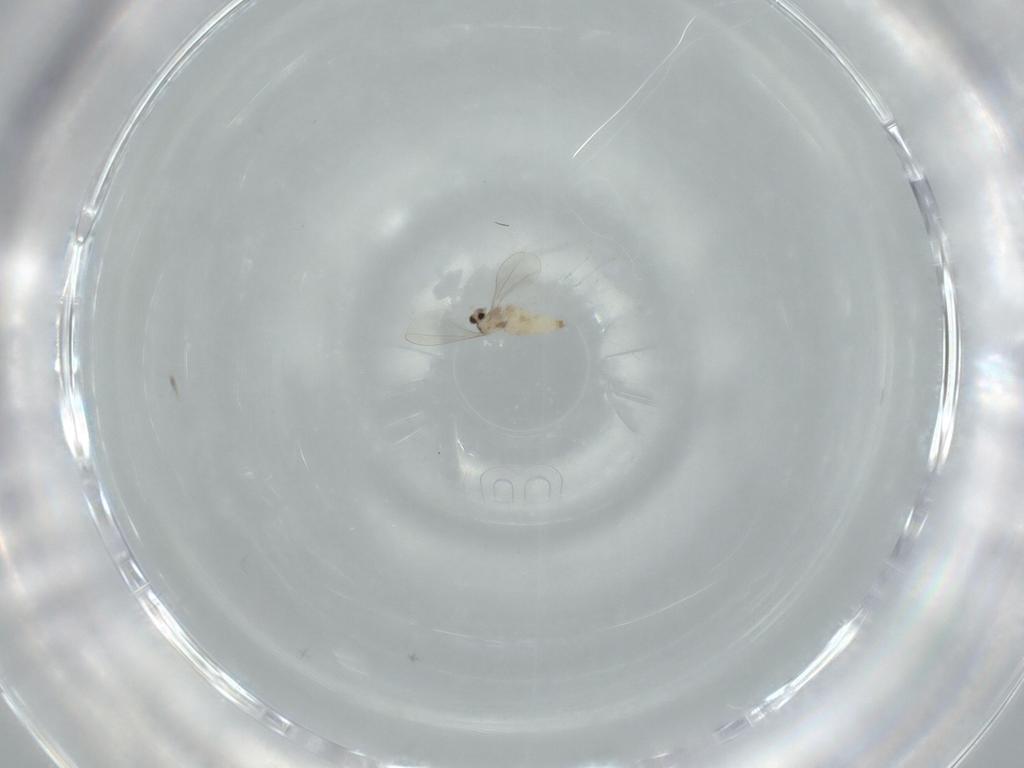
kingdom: Animalia
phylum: Arthropoda
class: Insecta
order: Diptera
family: Cecidomyiidae
